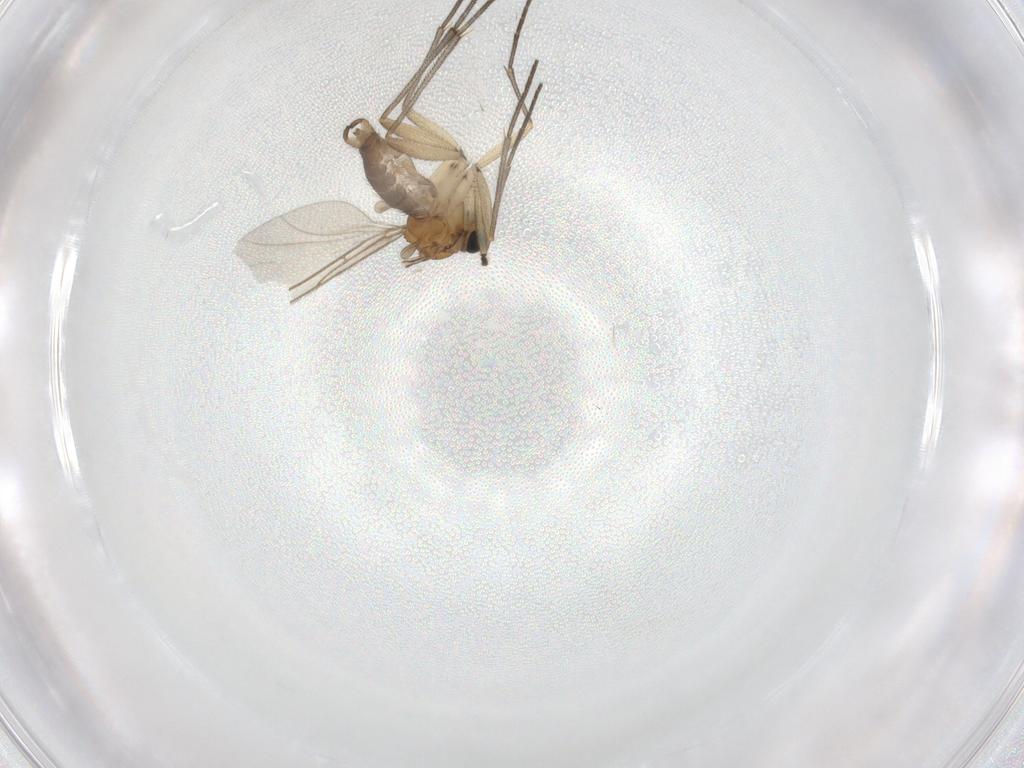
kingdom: Animalia
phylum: Arthropoda
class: Insecta
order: Diptera
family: Sciaridae
